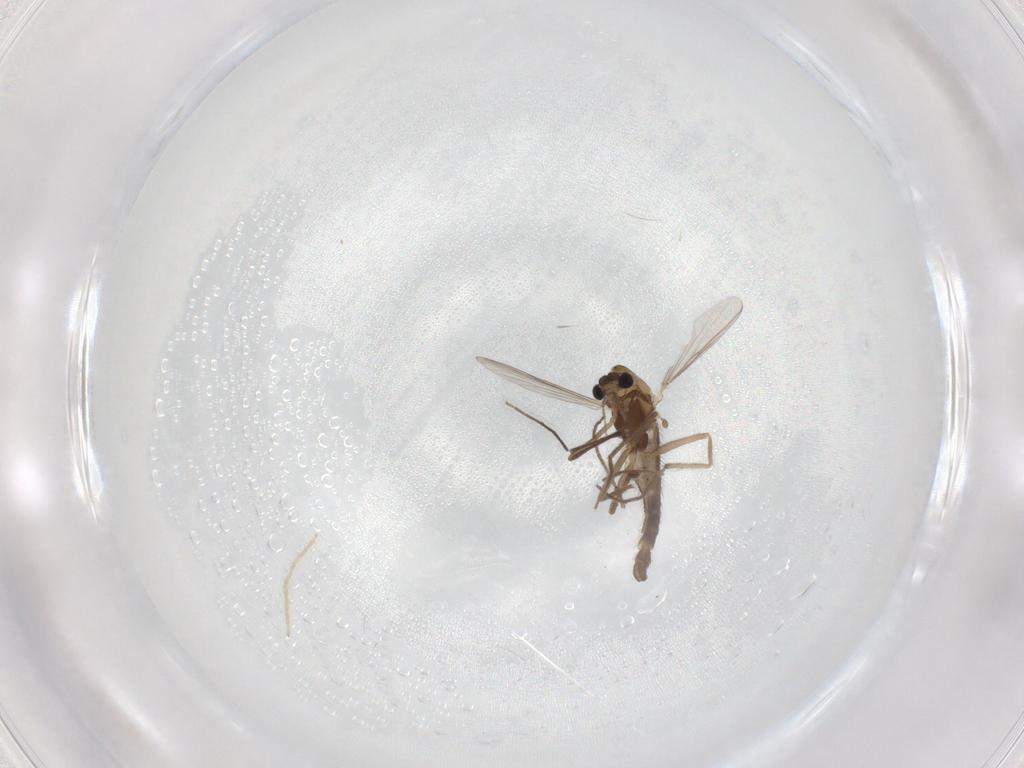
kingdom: Animalia
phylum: Arthropoda
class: Insecta
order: Diptera
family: Chironomidae
